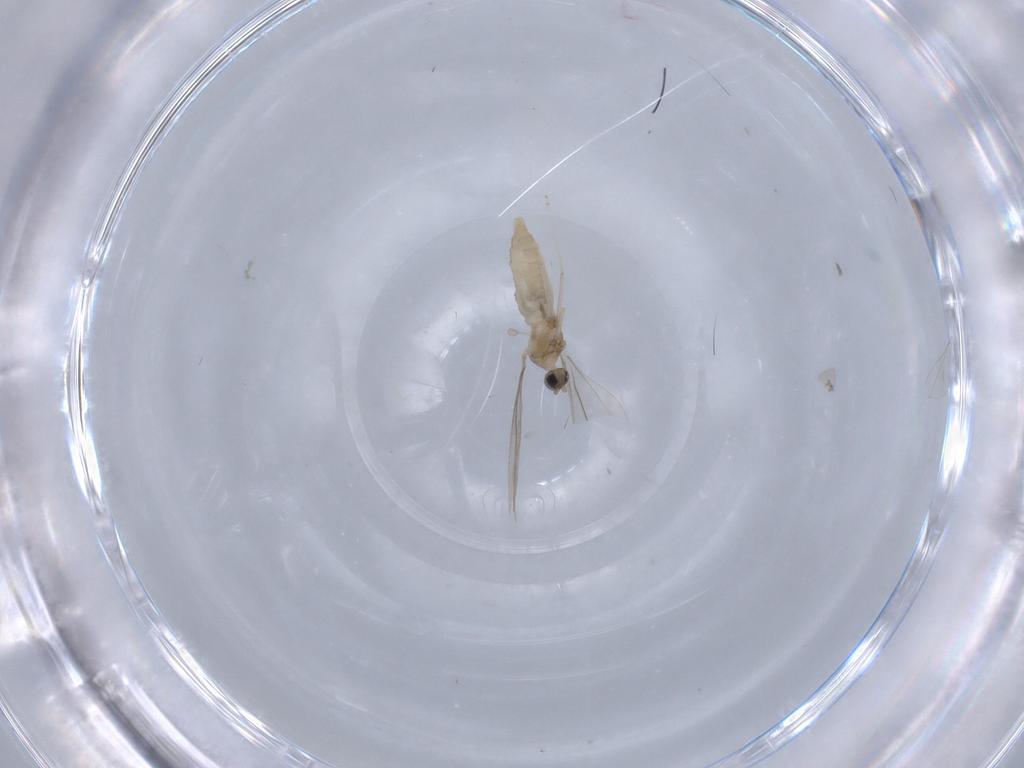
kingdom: Animalia
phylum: Arthropoda
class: Insecta
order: Diptera
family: Cecidomyiidae
